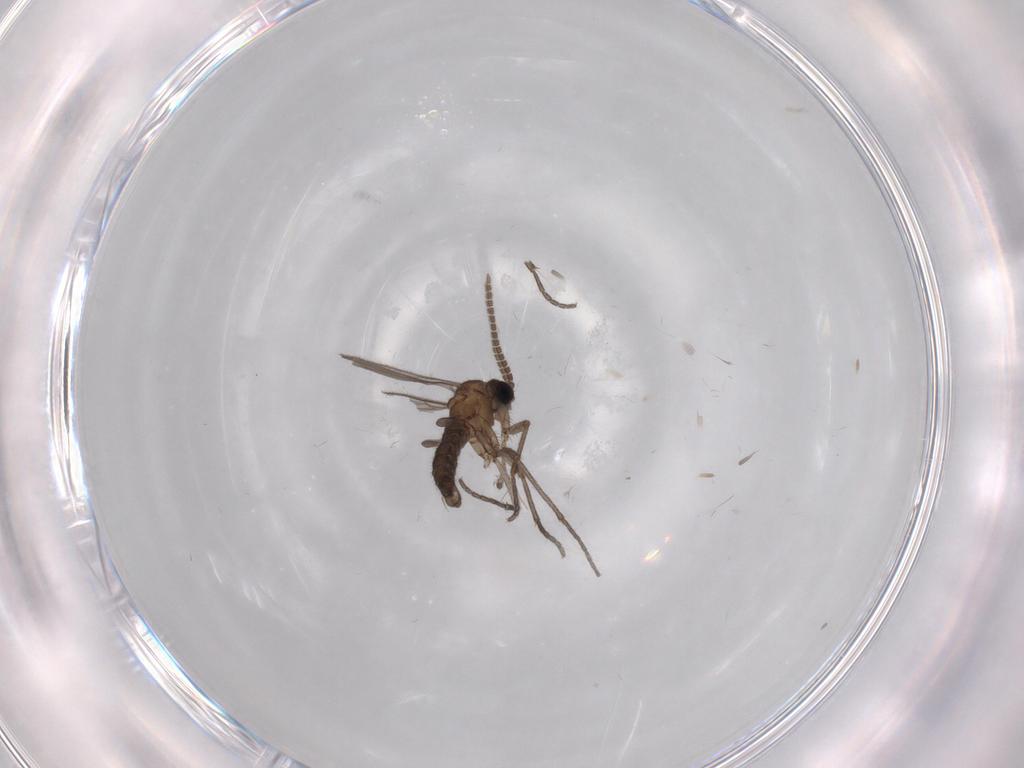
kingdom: Animalia
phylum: Arthropoda
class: Insecta
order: Diptera
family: Sciaridae
